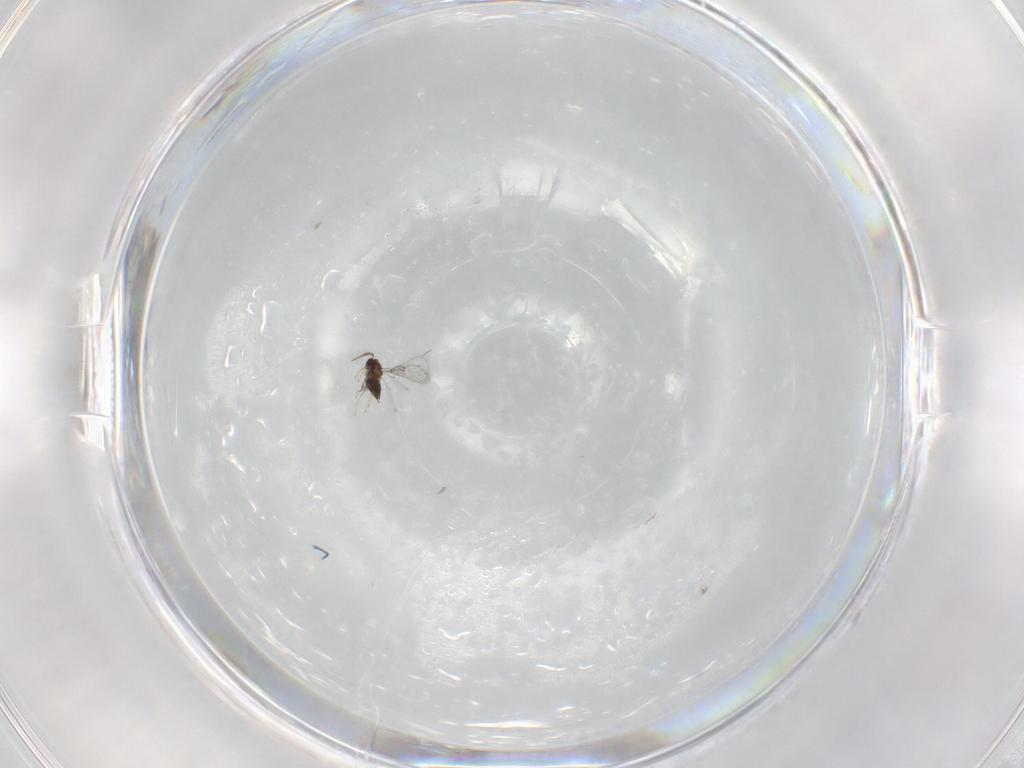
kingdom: Animalia
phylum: Arthropoda
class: Insecta
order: Hymenoptera
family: Trichogrammatidae
